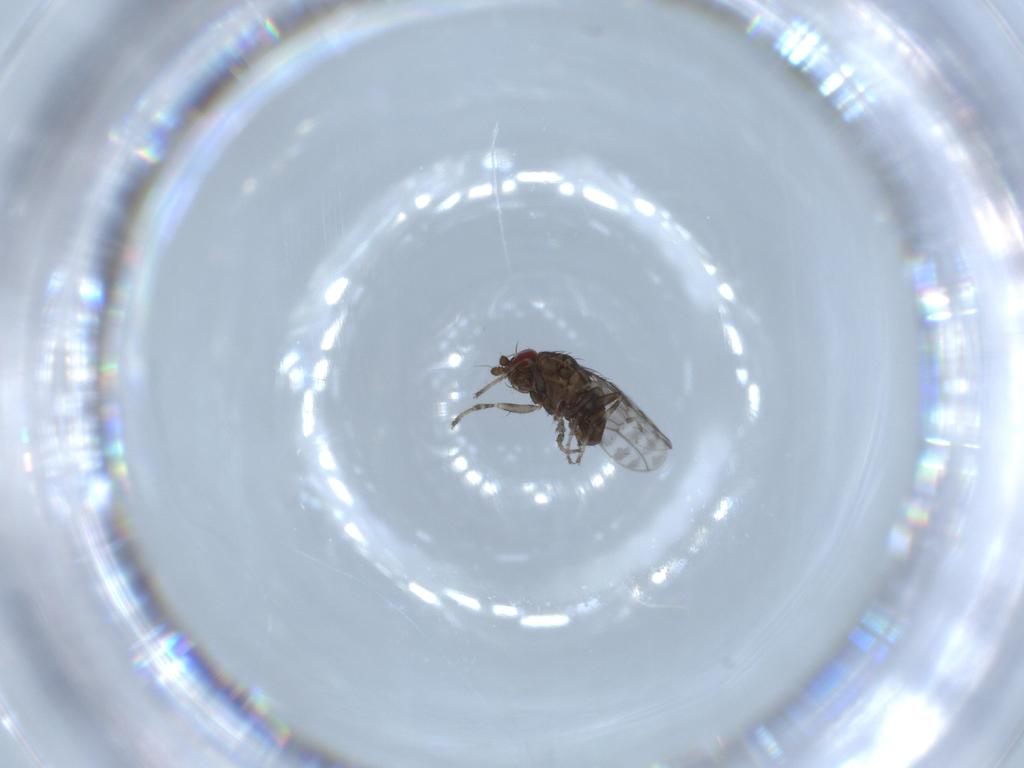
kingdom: Animalia
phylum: Arthropoda
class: Insecta
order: Diptera
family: Sphaeroceridae
